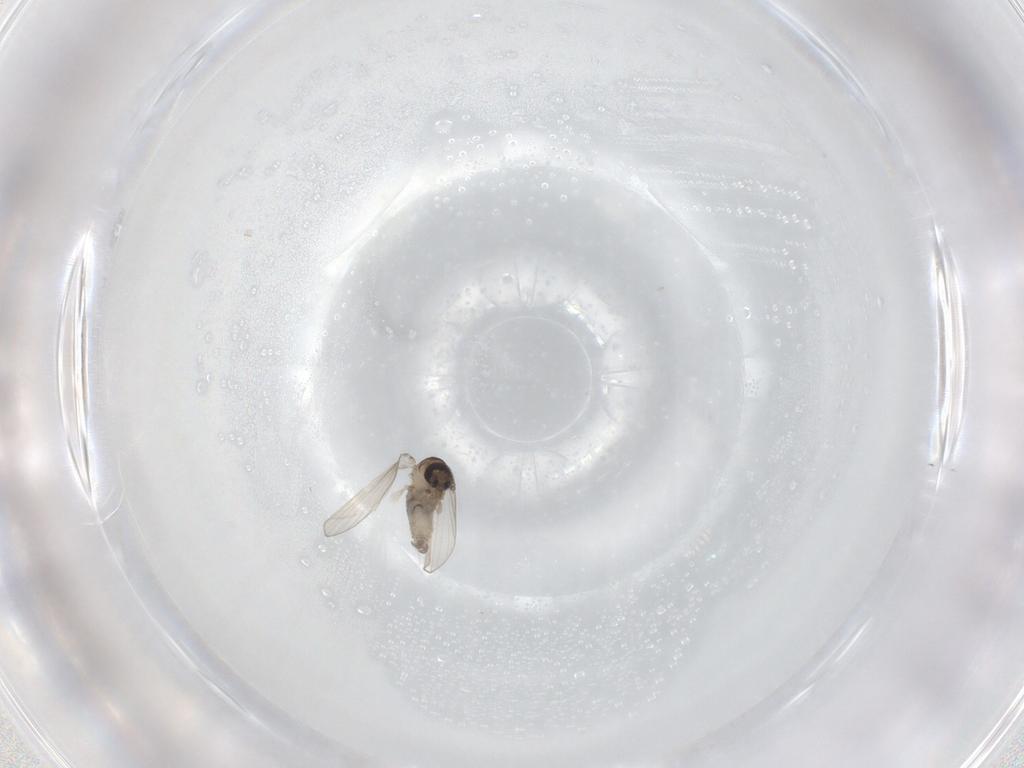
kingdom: Animalia
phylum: Arthropoda
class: Insecta
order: Diptera
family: Psychodidae
